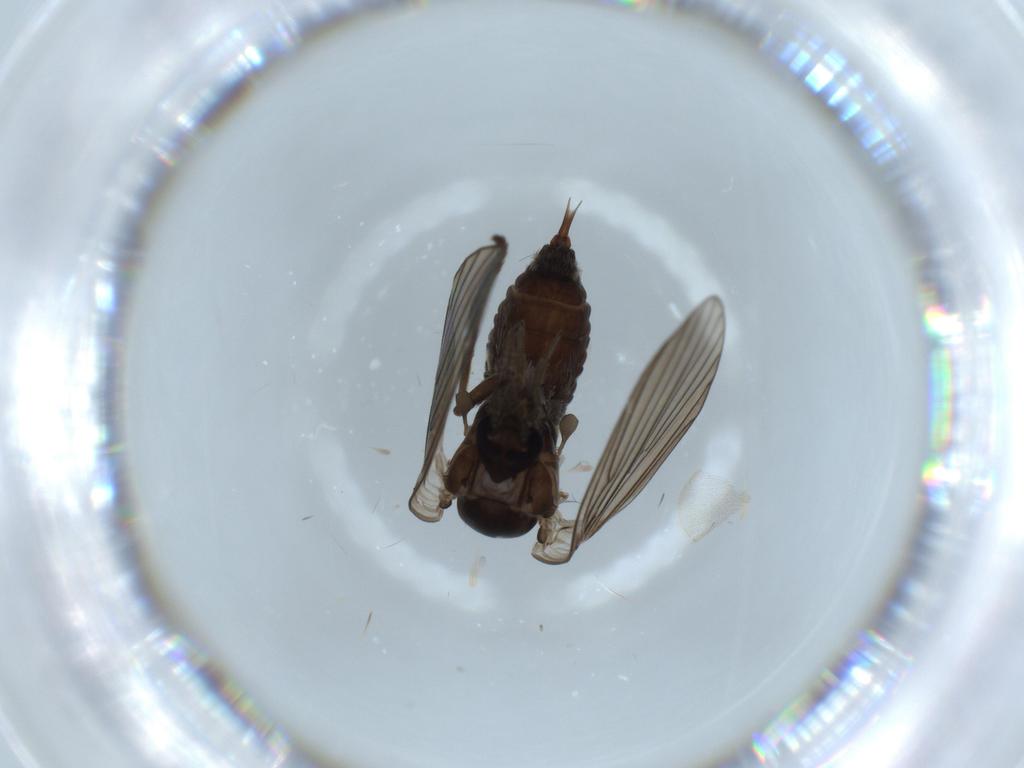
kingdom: Animalia
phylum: Arthropoda
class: Insecta
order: Diptera
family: Psychodidae
